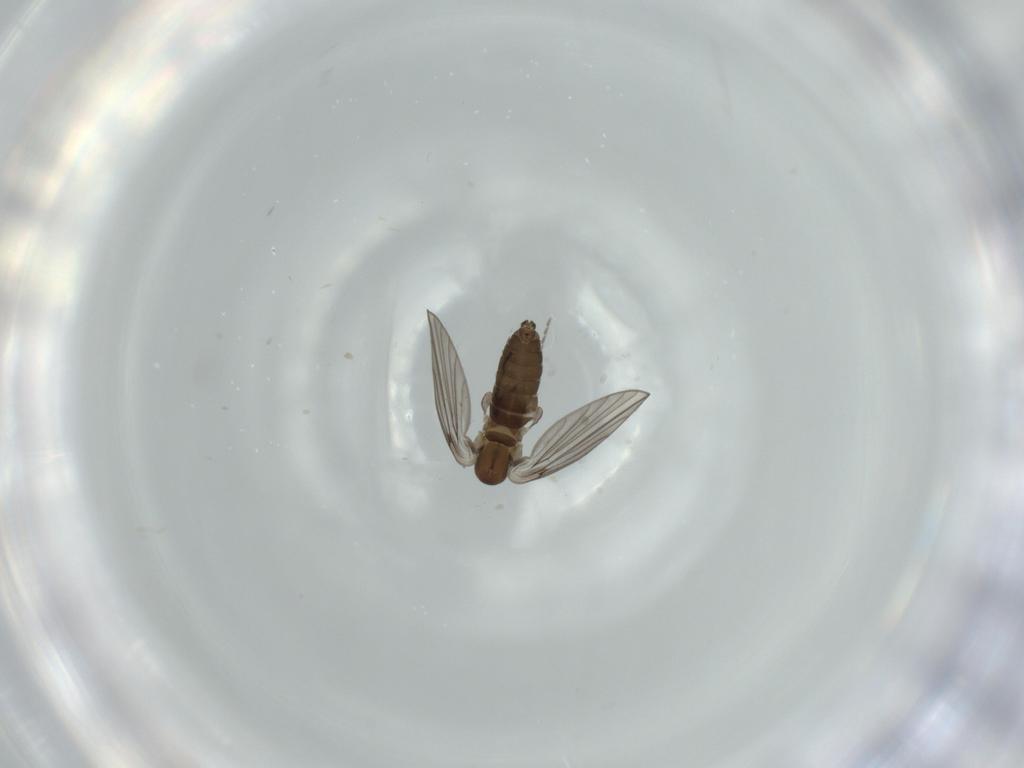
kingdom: Animalia
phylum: Arthropoda
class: Insecta
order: Diptera
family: Psychodidae
